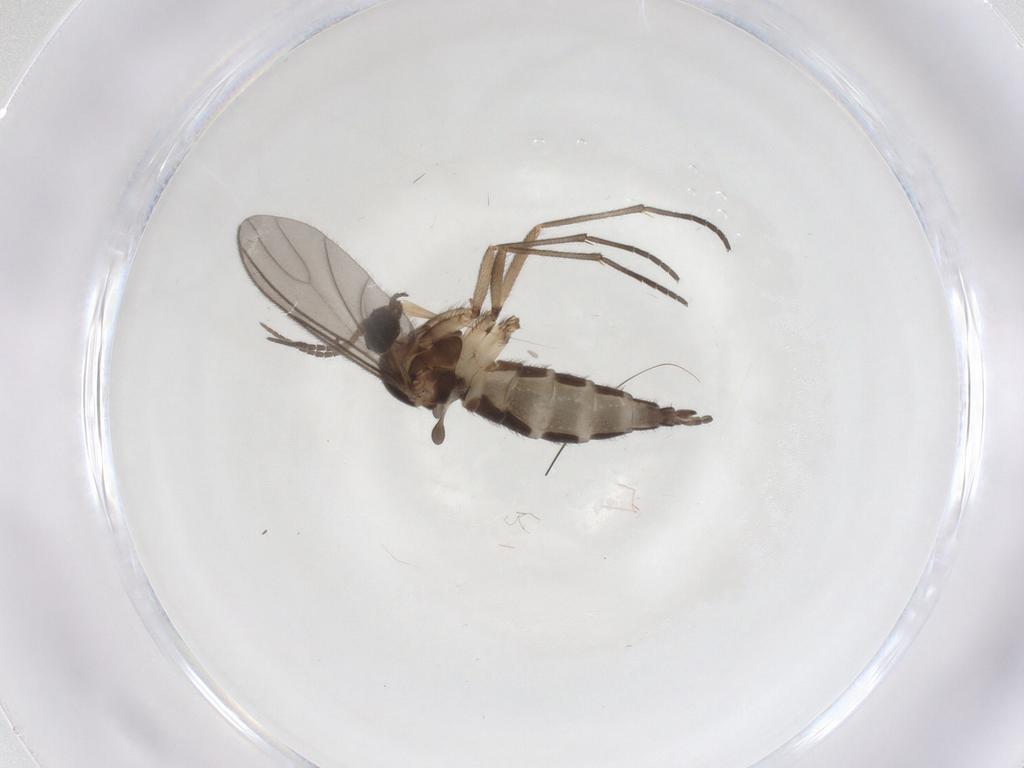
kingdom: Animalia
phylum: Arthropoda
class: Insecta
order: Diptera
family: Sciaridae
